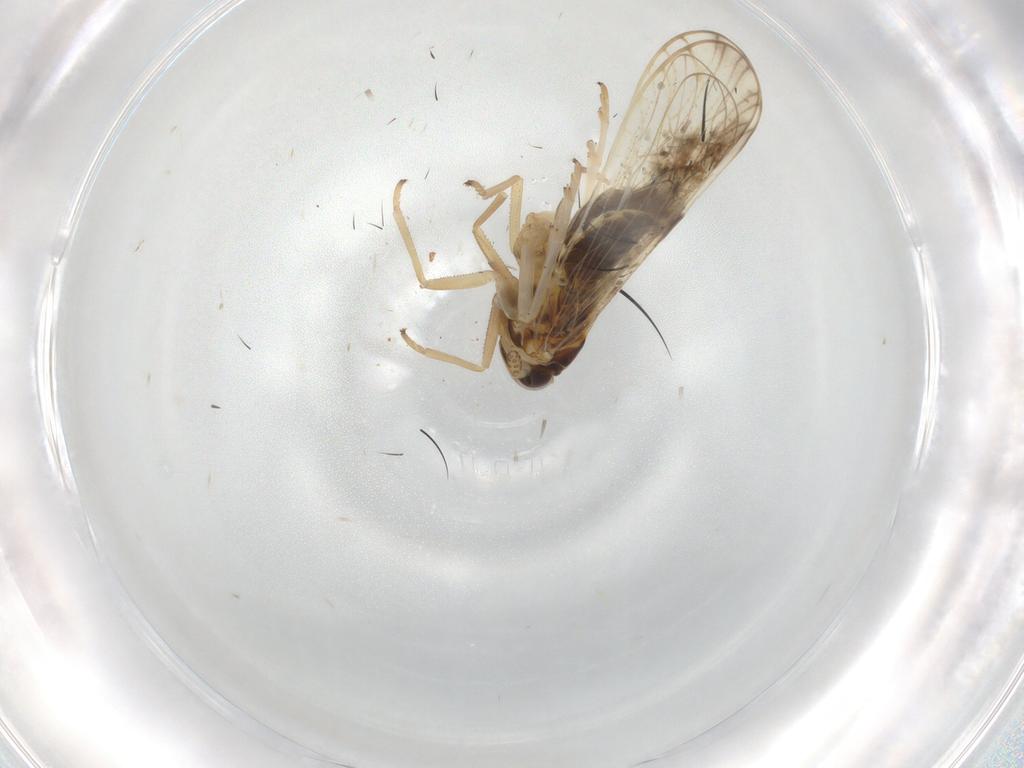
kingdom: Animalia
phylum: Arthropoda
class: Insecta
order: Hemiptera
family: Delphacidae
